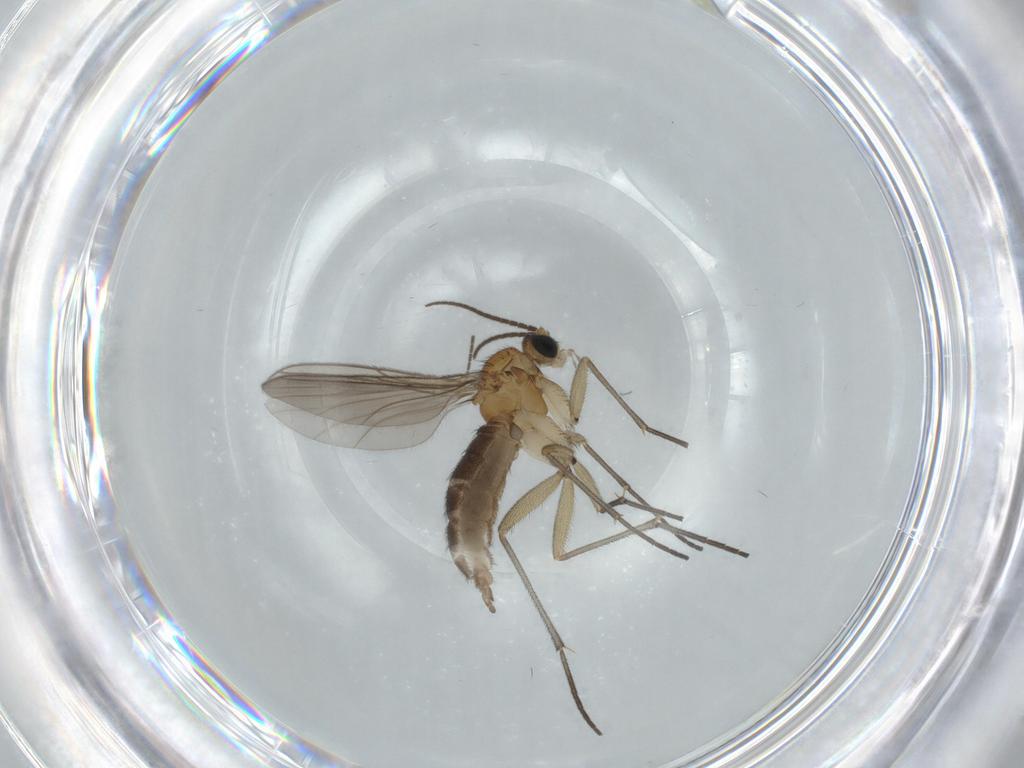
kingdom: Animalia
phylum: Arthropoda
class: Insecta
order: Diptera
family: Sciaridae
